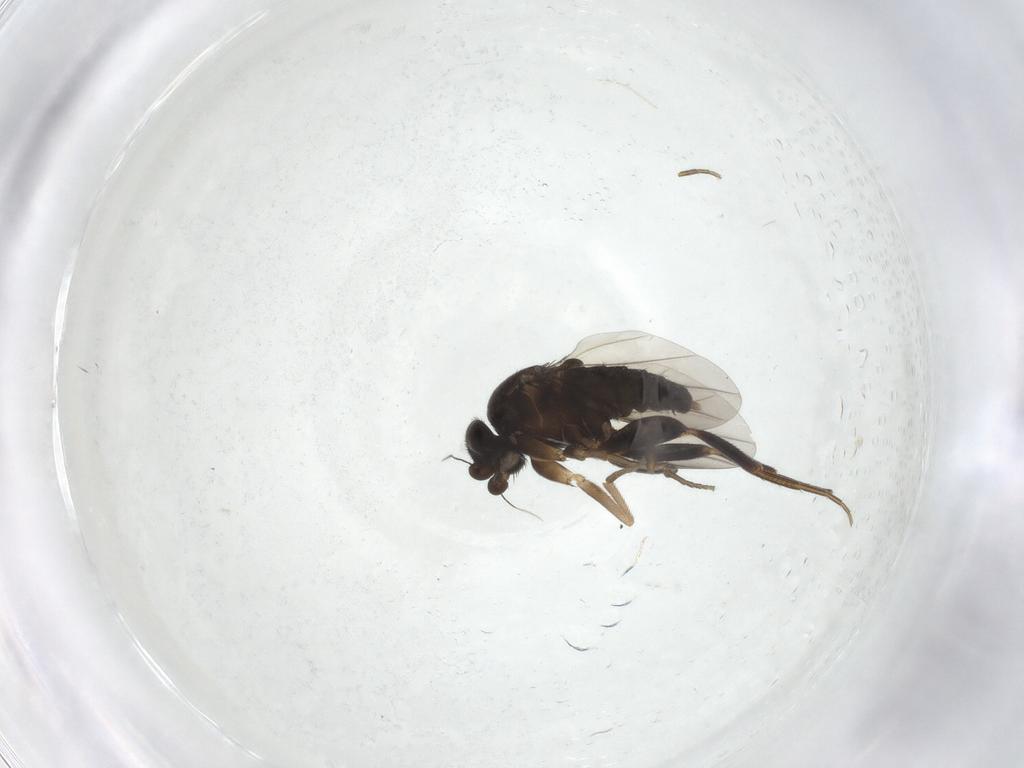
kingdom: Animalia
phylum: Arthropoda
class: Insecta
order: Diptera
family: Phoridae
